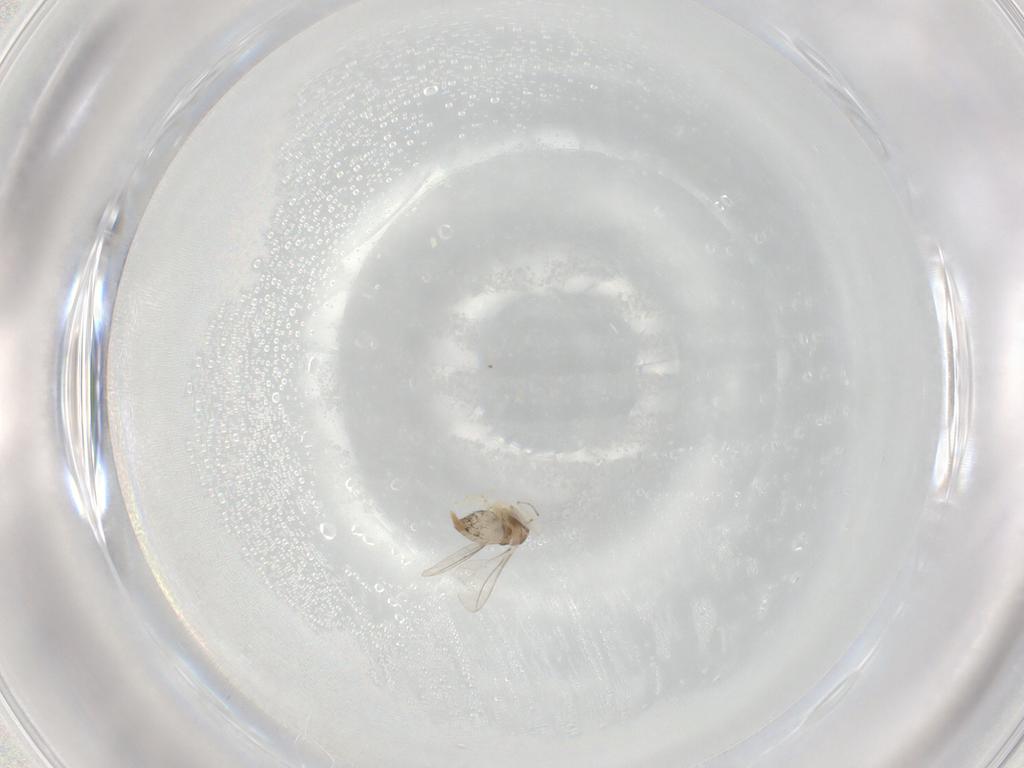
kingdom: Animalia
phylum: Arthropoda
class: Insecta
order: Diptera
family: Cecidomyiidae
